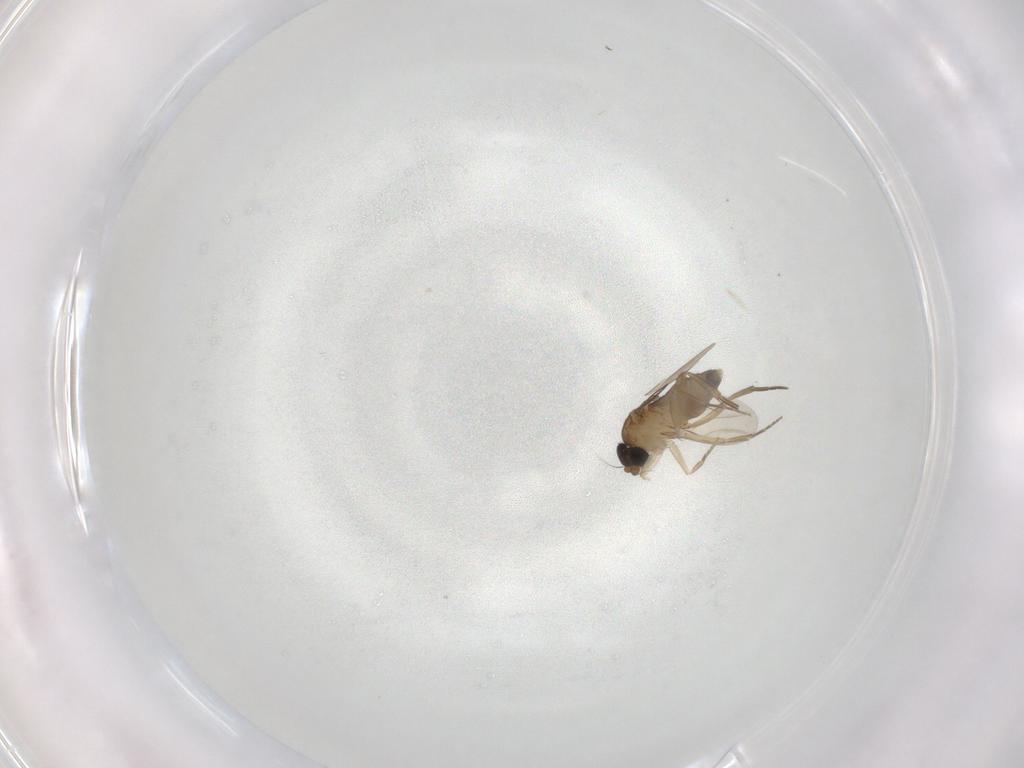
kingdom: Animalia
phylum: Arthropoda
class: Insecta
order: Diptera
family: Phoridae
